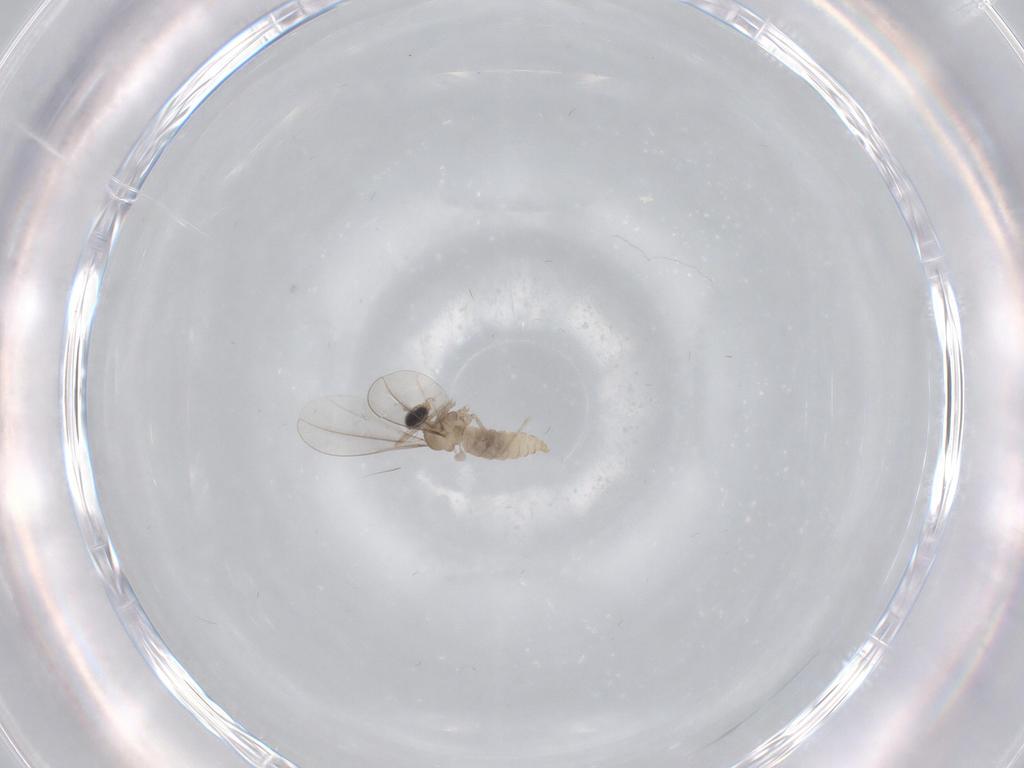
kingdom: Animalia
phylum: Arthropoda
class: Insecta
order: Diptera
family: Cecidomyiidae
